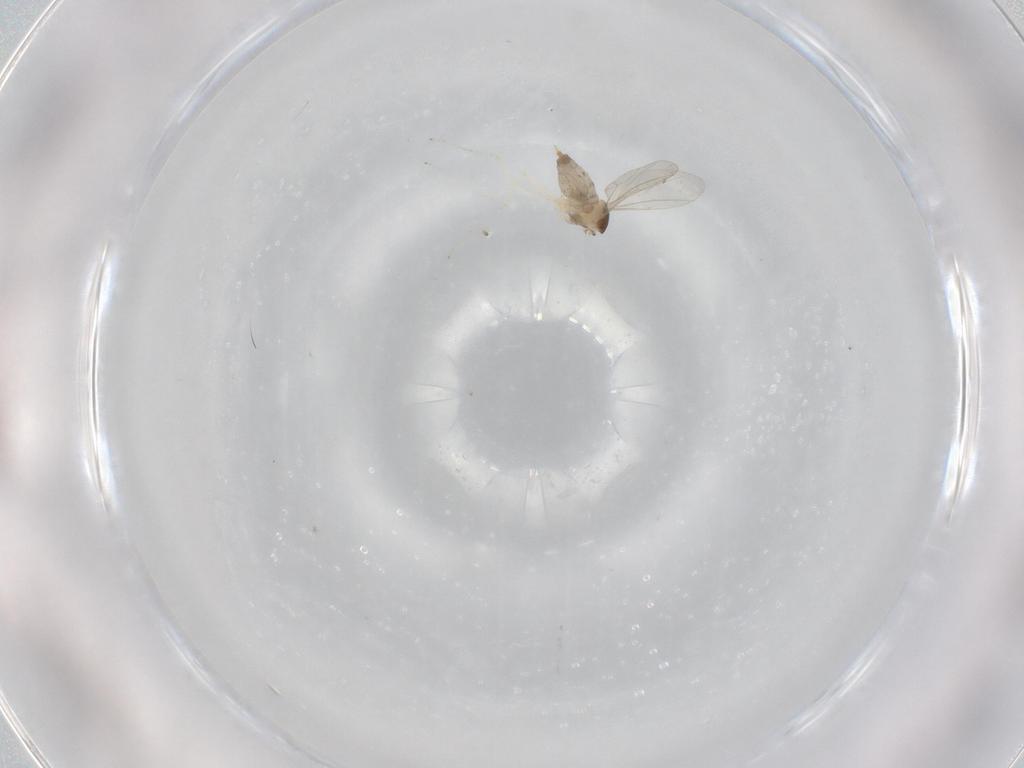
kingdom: Animalia
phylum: Arthropoda
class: Insecta
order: Diptera
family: Cecidomyiidae
